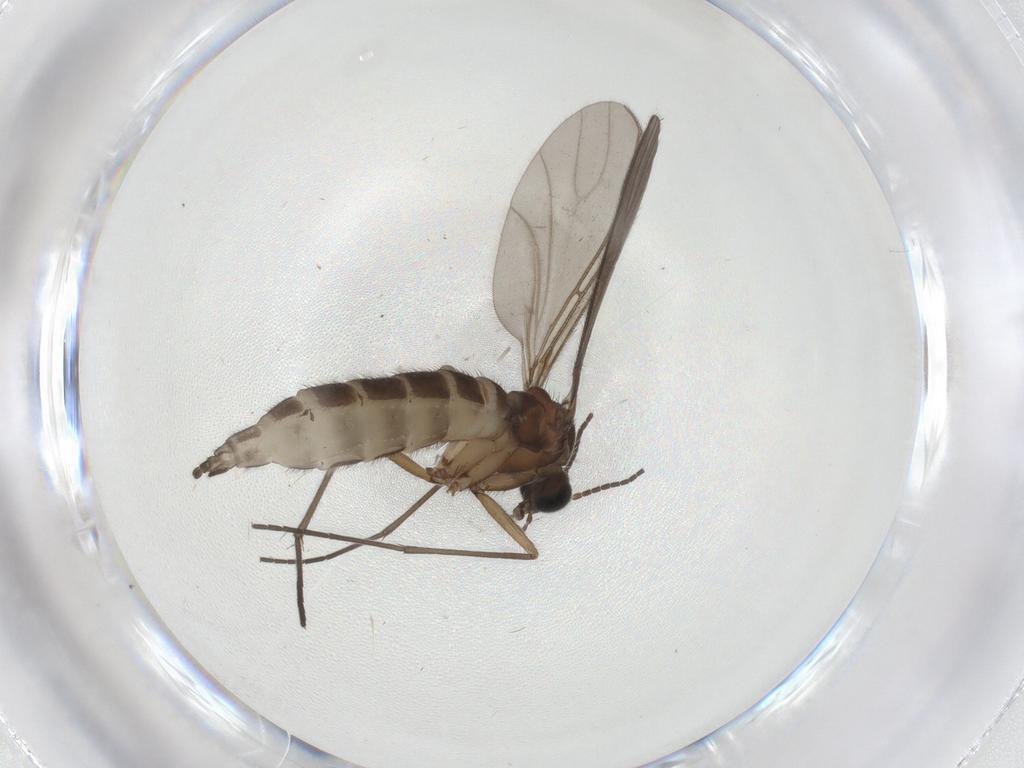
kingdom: Animalia
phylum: Arthropoda
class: Insecta
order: Diptera
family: Sciaridae
